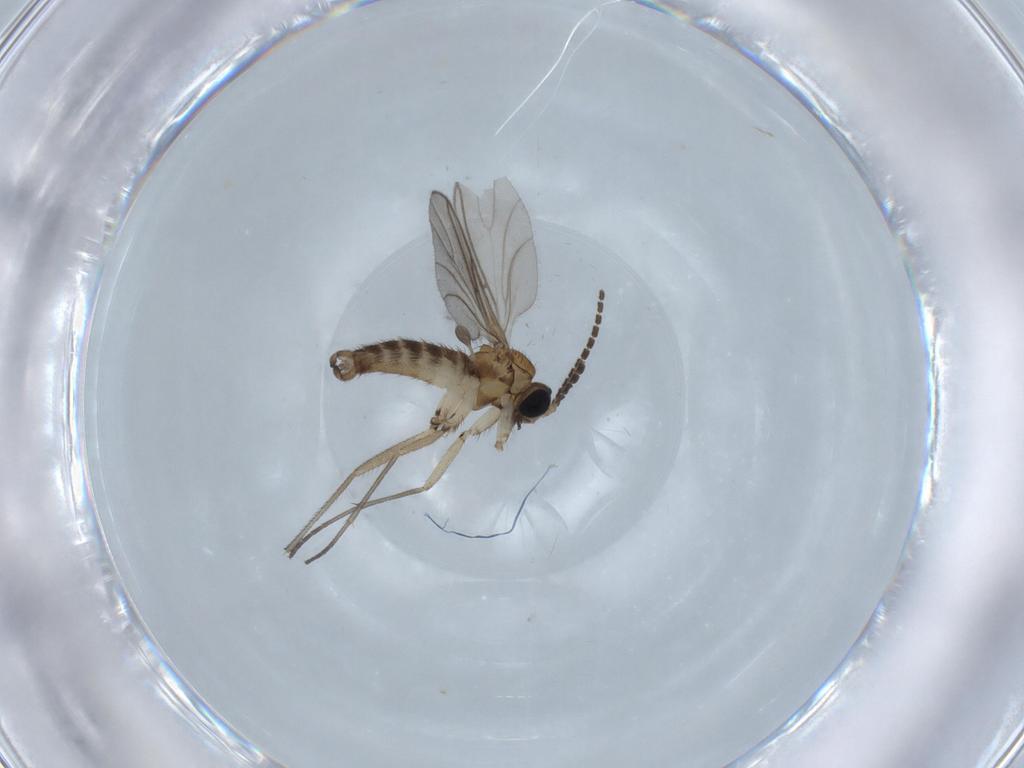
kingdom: Animalia
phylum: Arthropoda
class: Insecta
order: Diptera
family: Sciaridae
